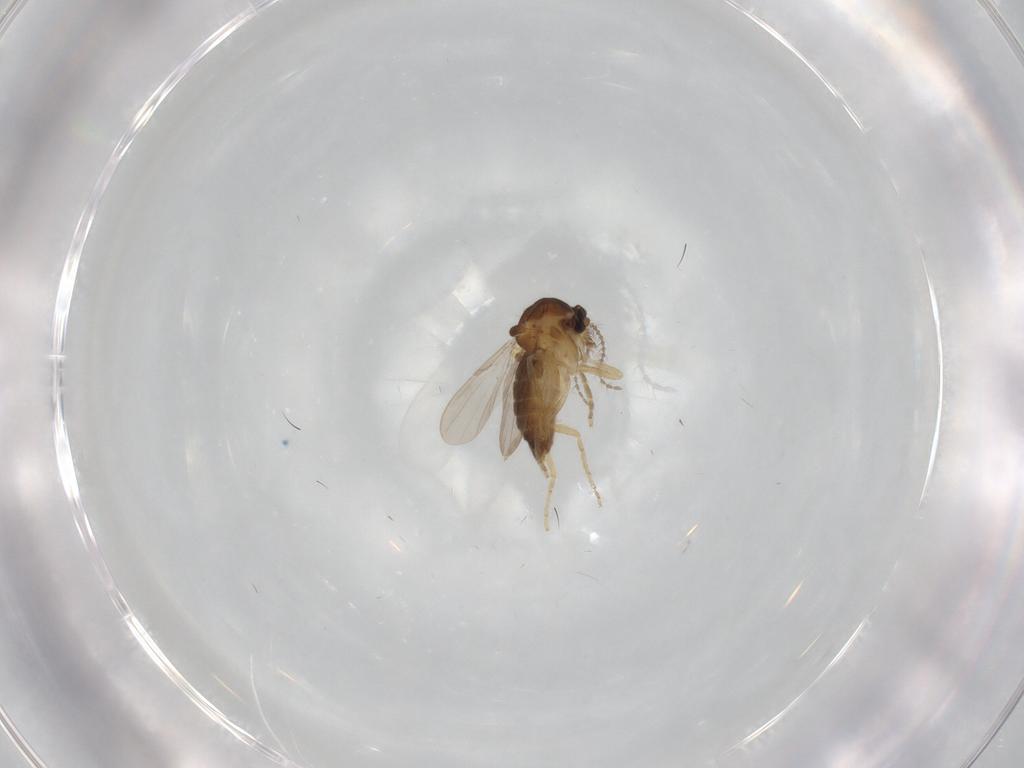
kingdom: Animalia
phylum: Arthropoda
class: Insecta
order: Diptera
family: Ceratopogonidae
